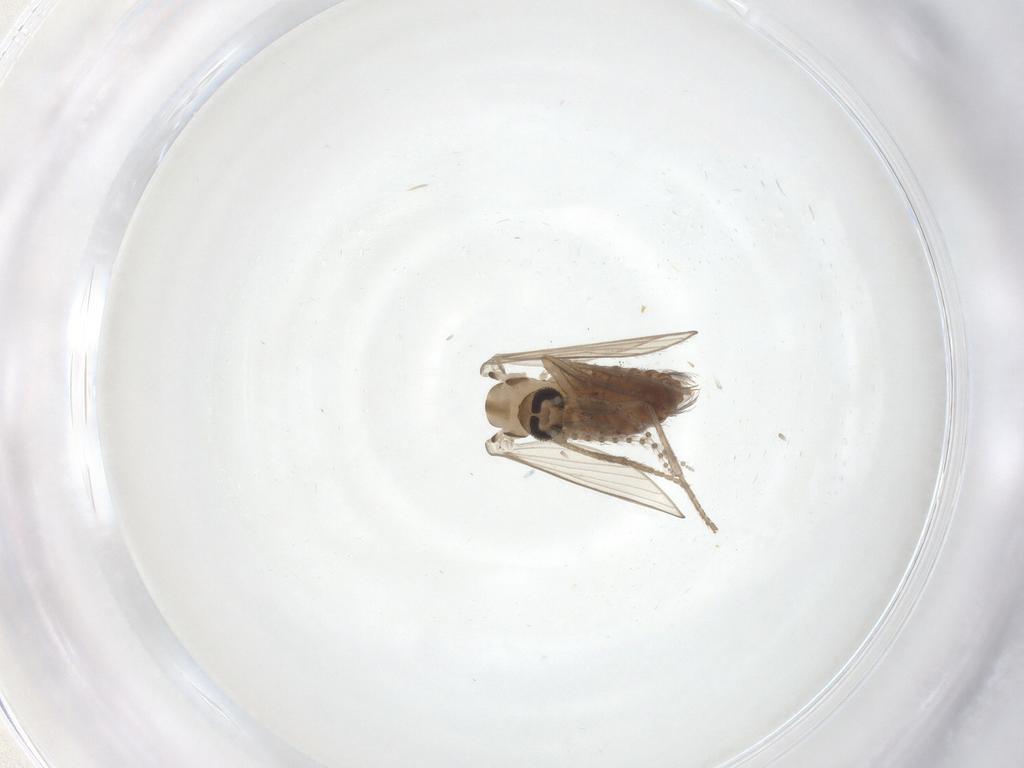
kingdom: Animalia
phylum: Arthropoda
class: Insecta
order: Diptera
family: Psychodidae
